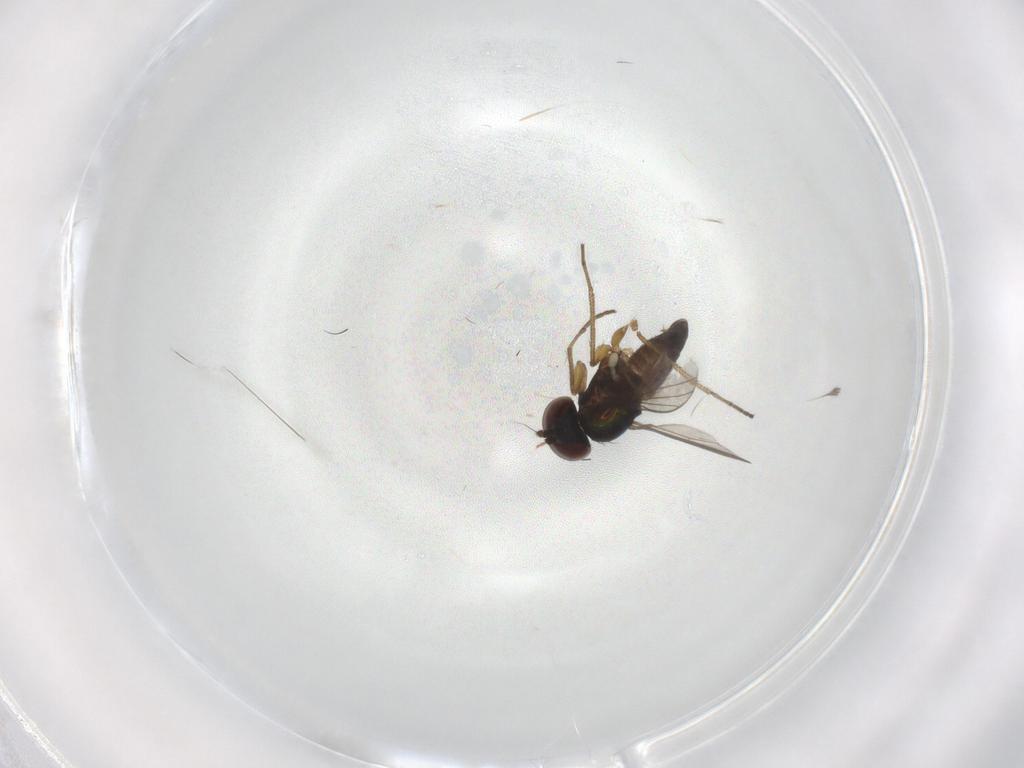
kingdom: Animalia
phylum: Arthropoda
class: Insecta
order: Diptera
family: Dolichopodidae
